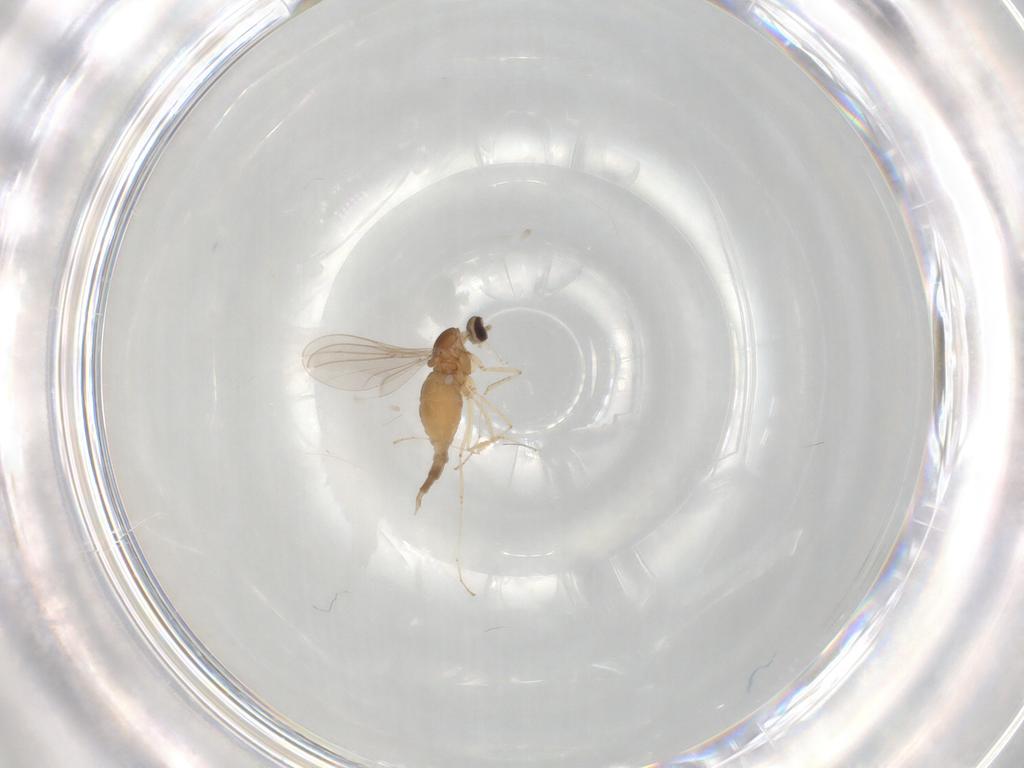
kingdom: Animalia
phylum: Arthropoda
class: Insecta
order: Diptera
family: Cecidomyiidae
